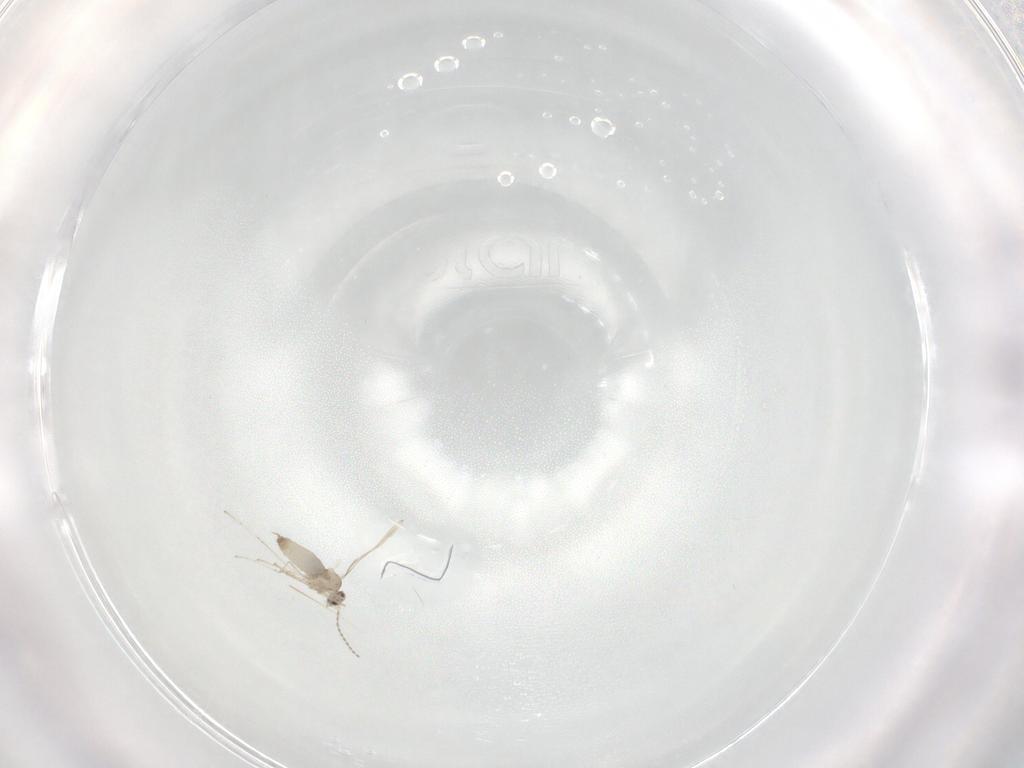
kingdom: Animalia
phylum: Arthropoda
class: Insecta
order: Diptera
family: Cecidomyiidae
